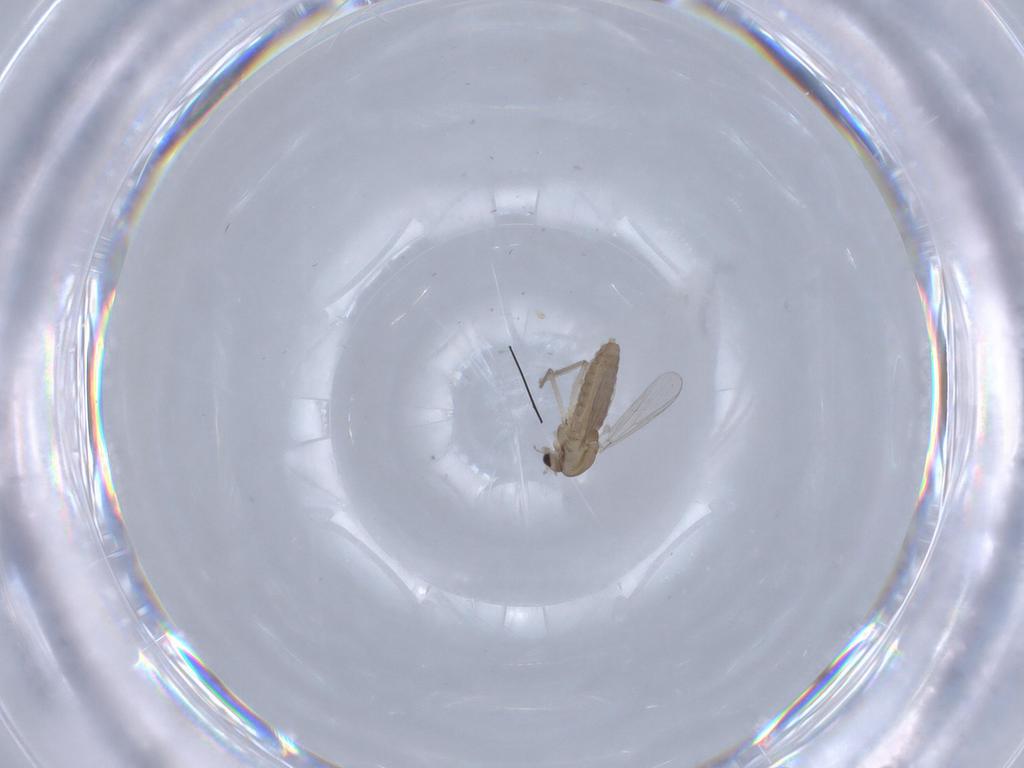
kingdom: Animalia
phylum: Arthropoda
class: Insecta
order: Diptera
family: Chironomidae
